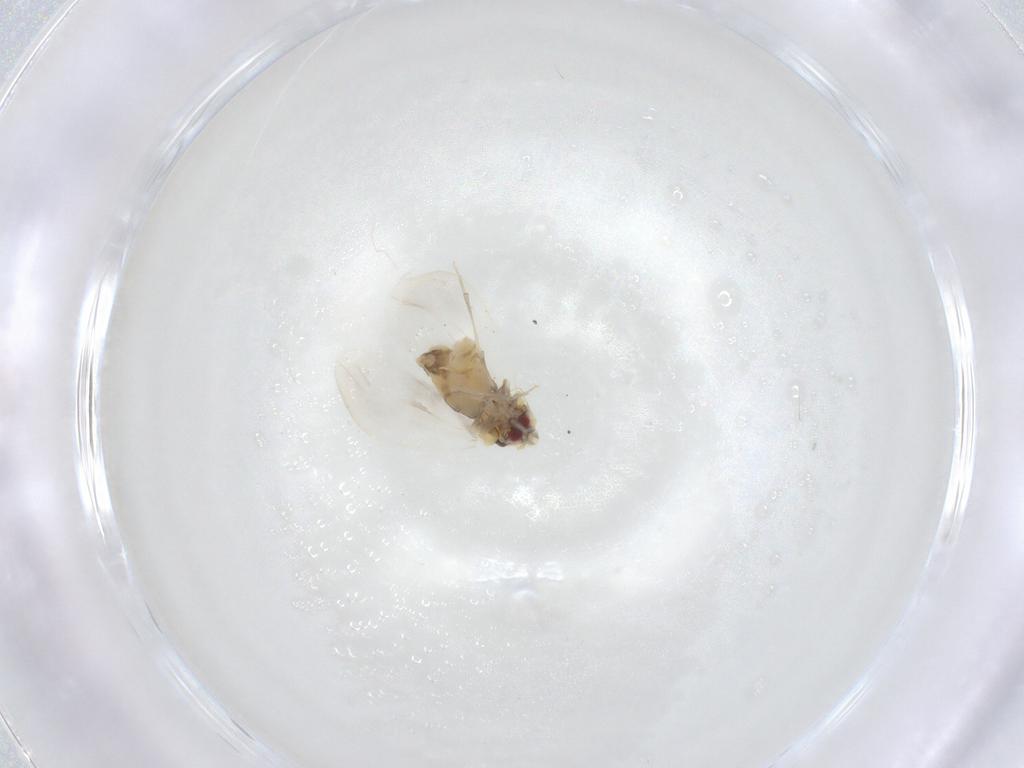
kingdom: Animalia
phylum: Arthropoda
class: Insecta
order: Hemiptera
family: Aleyrodidae
